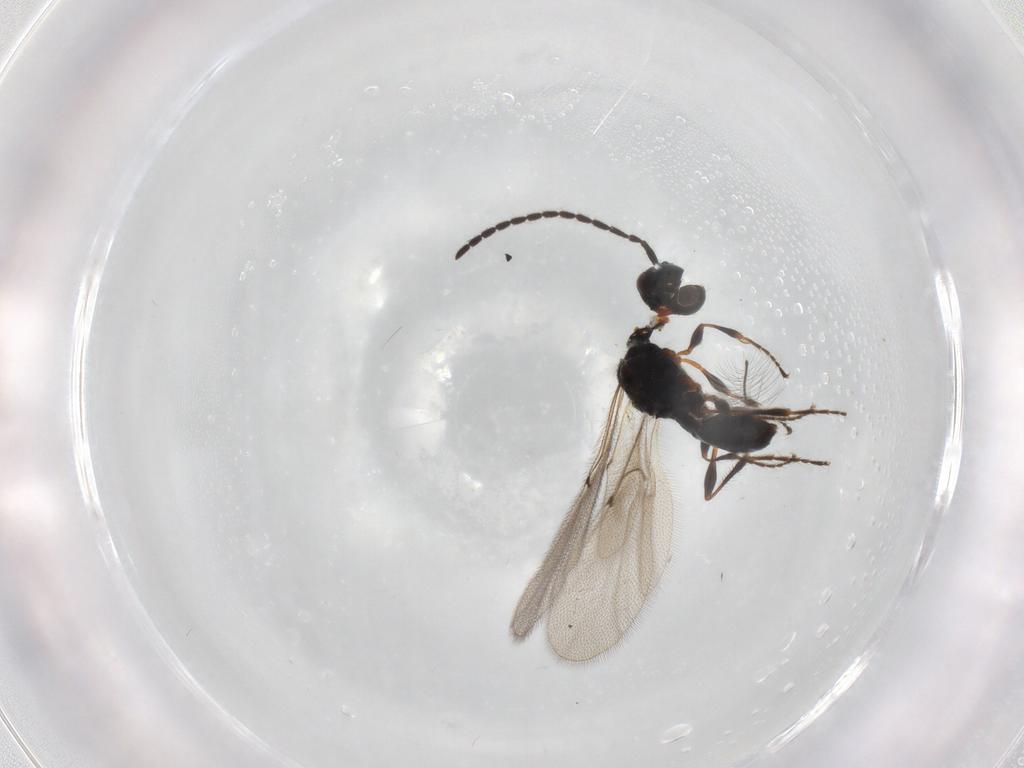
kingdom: Animalia
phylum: Arthropoda
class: Insecta
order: Hymenoptera
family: Diapriidae
